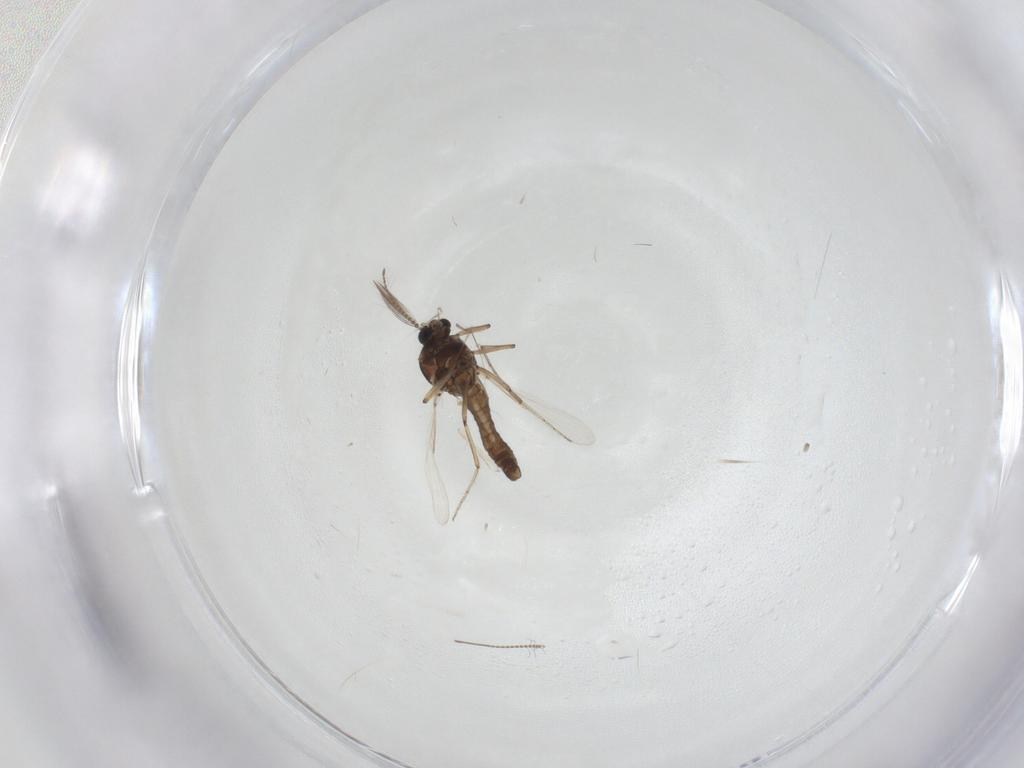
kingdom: Animalia
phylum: Arthropoda
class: Insecta
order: Diptera
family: Ceratopogonidae
